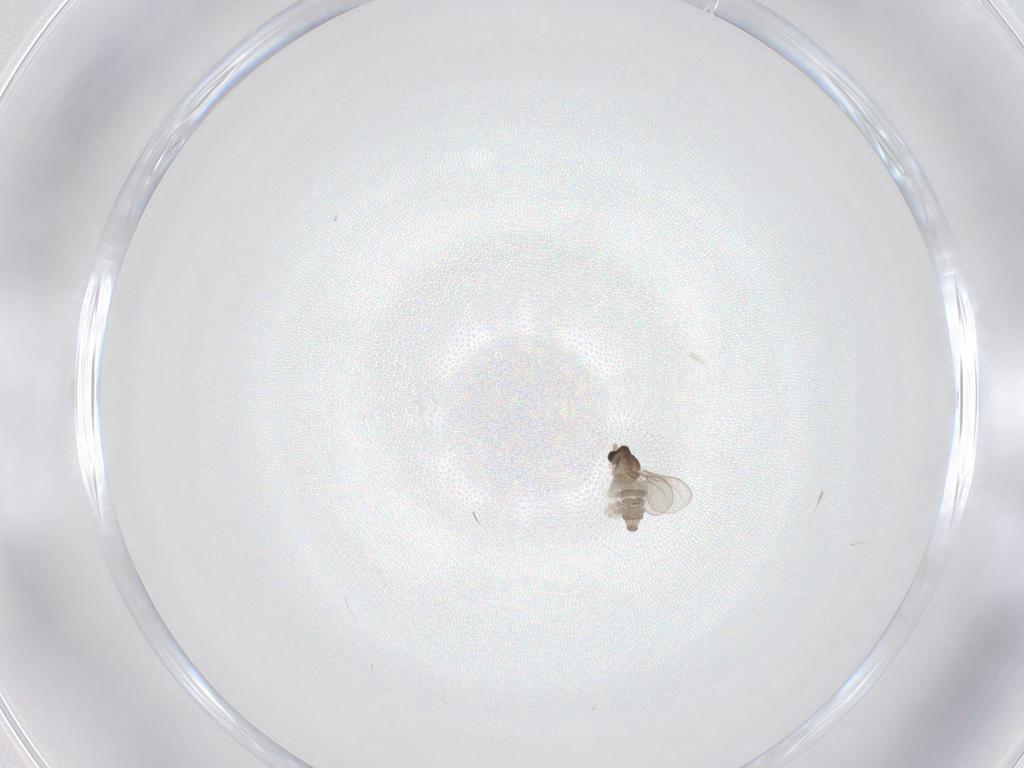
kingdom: Animalia
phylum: Arthropoda
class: Insecta
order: Diptera
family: Cecidomyiidae
